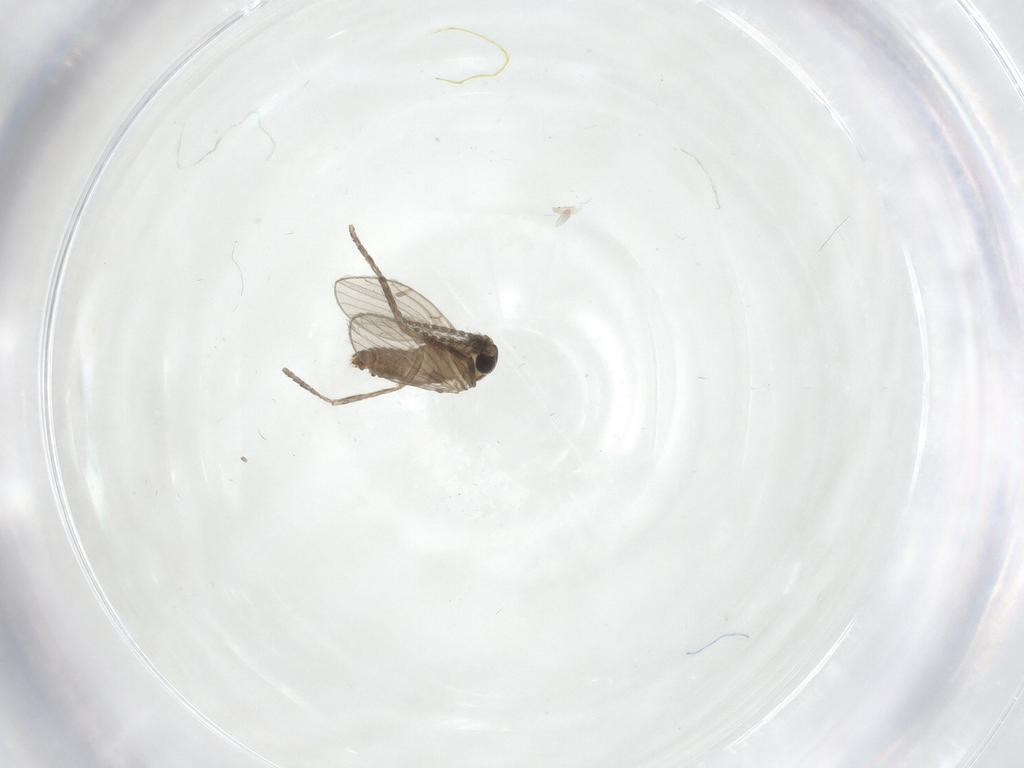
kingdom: Animalia
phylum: Arthropoda
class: Insecta
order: Diptera
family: Psychodidae
